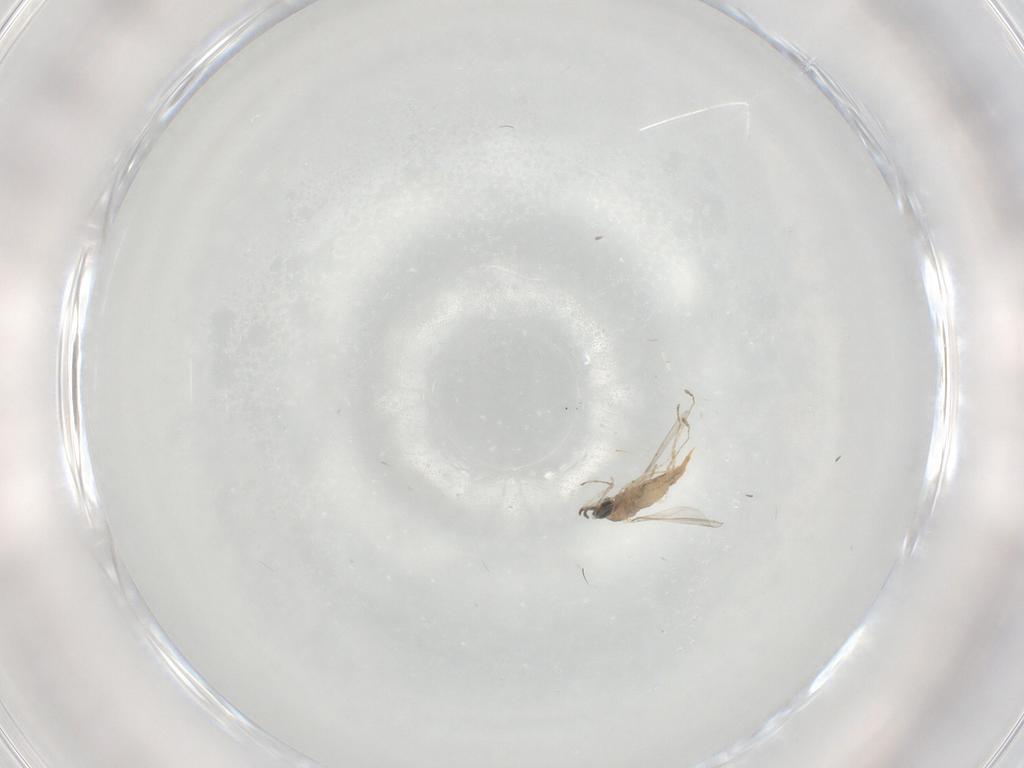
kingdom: Animalia
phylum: Arthropoda
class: Insecta
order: Diptera
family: Cecidomyiidae
